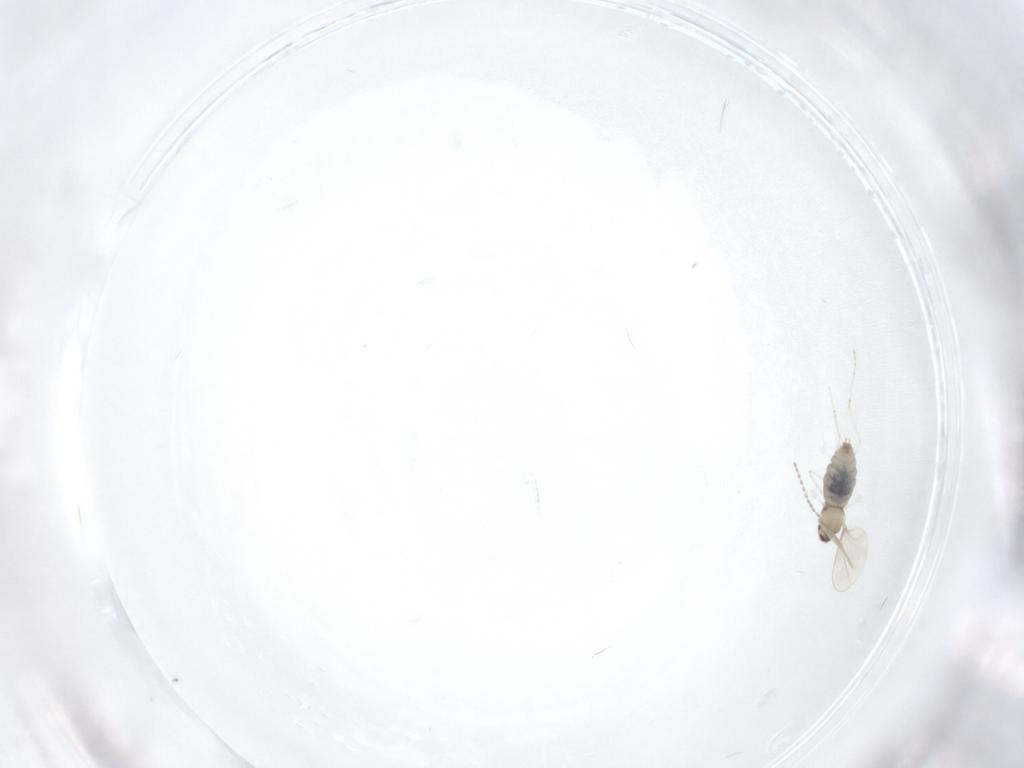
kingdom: Animalia
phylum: Arthropoda
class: Insecta
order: Diptera
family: Cecidomyiidae
